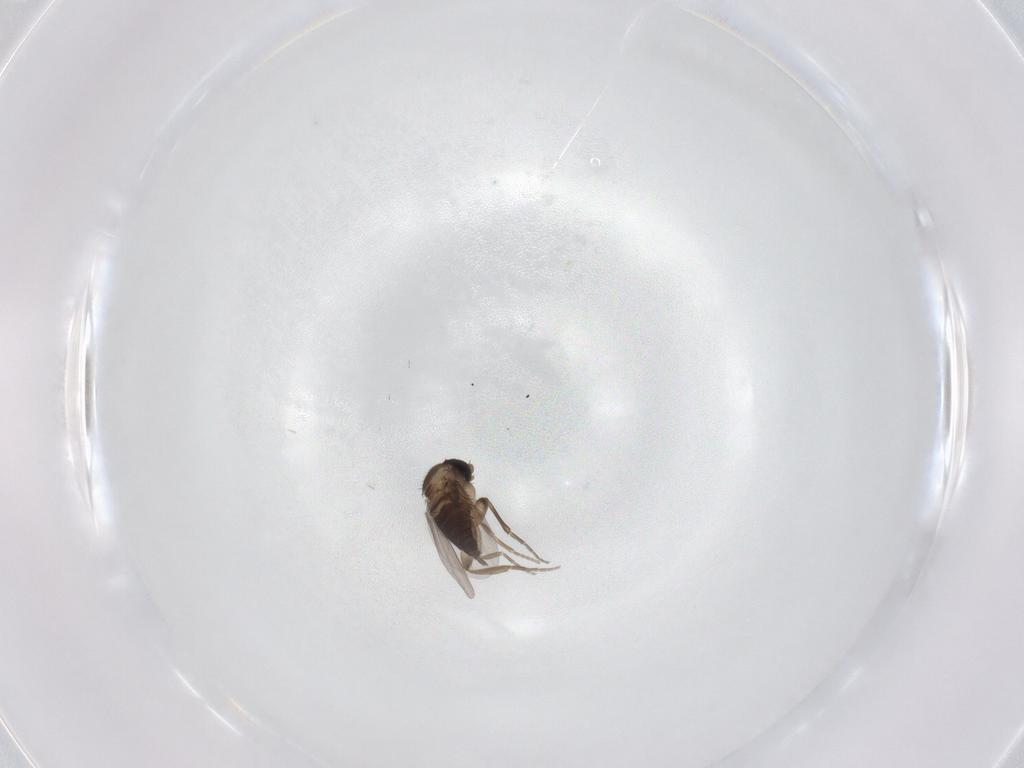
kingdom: Animalia
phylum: Arthropoda
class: Insecta
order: Diptera
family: Phoridae
